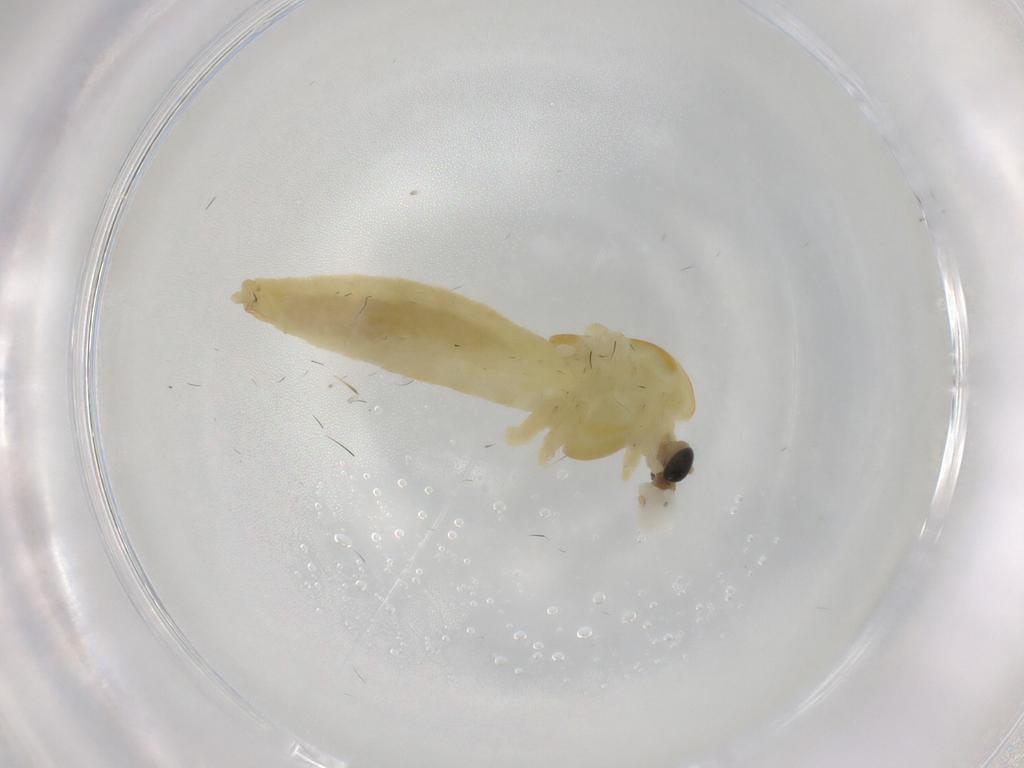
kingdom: Animalia
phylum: Arthropoda
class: Insecta
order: Diptera
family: Chironomidae
